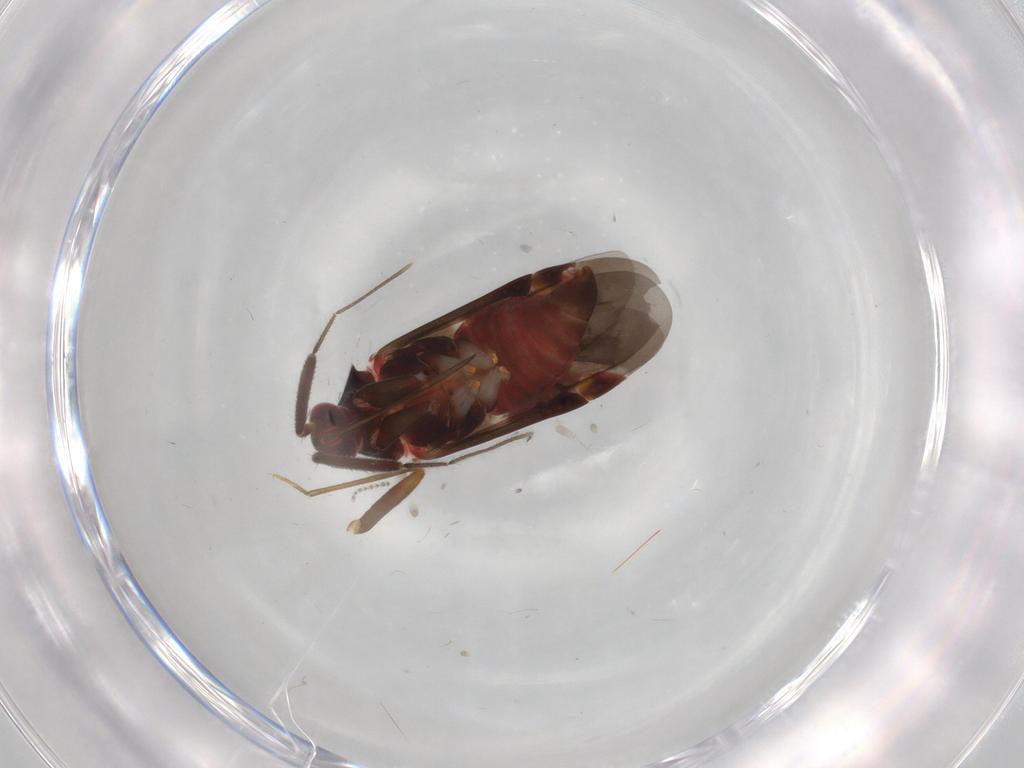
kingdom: Animalia
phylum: Arthropoda
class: Insecta
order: Hemiptera
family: Miridae
